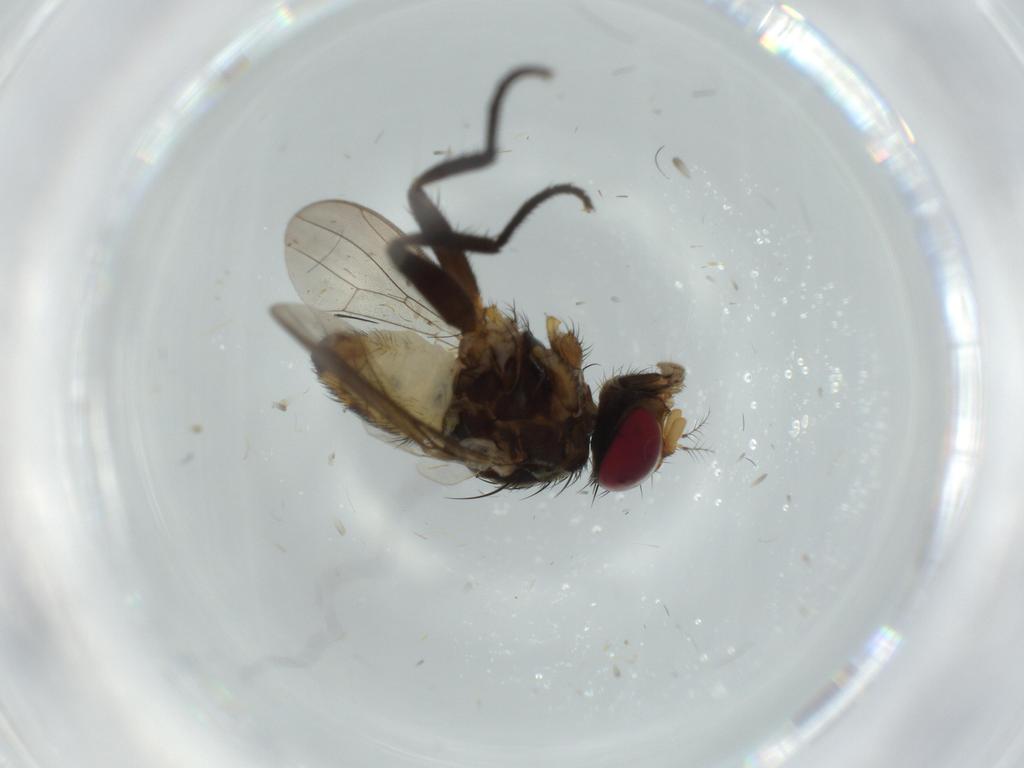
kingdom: Animalia
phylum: Arthropoda
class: Insecta
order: Diptera
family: Anthomyiidae
